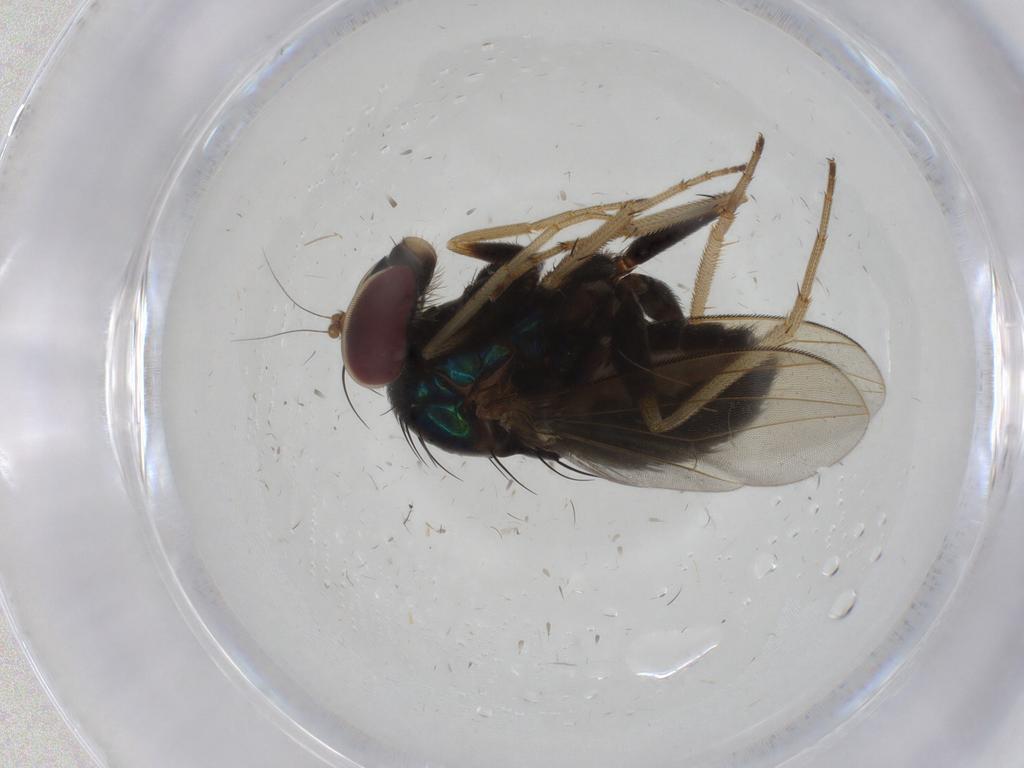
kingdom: Animalia
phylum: Arthropoda
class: Insecta
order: Diptera
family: Dolichopodidae
